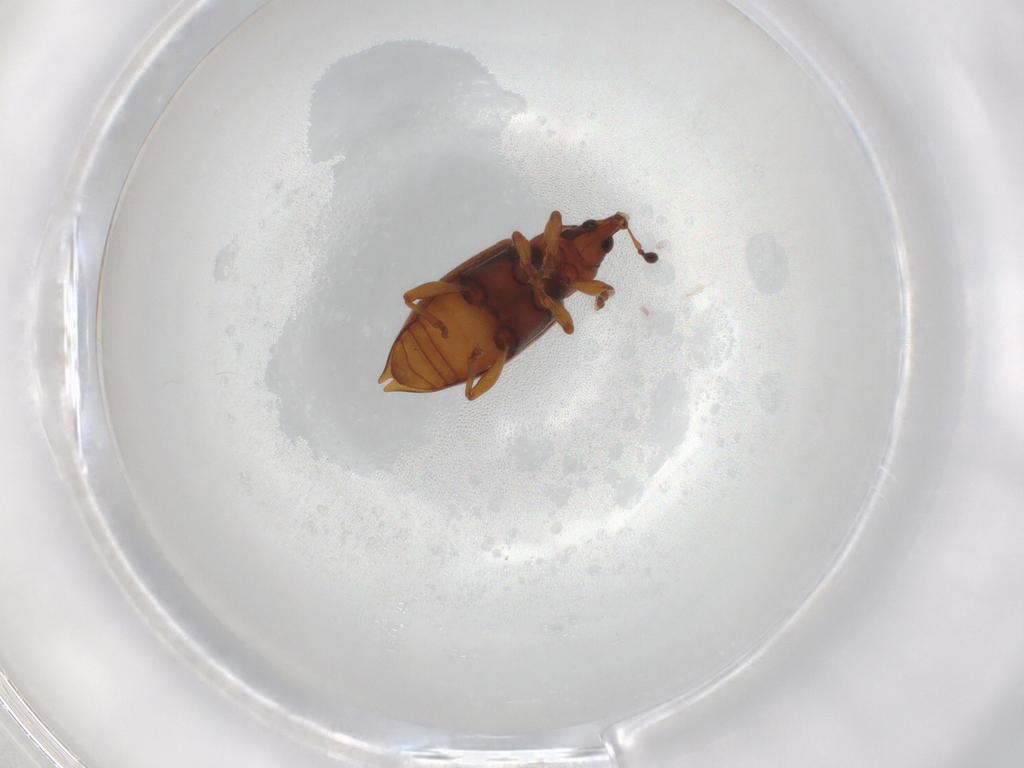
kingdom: Animalia
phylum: Arthropoda
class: Insecta
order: Coleoptera
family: Curculionidae
